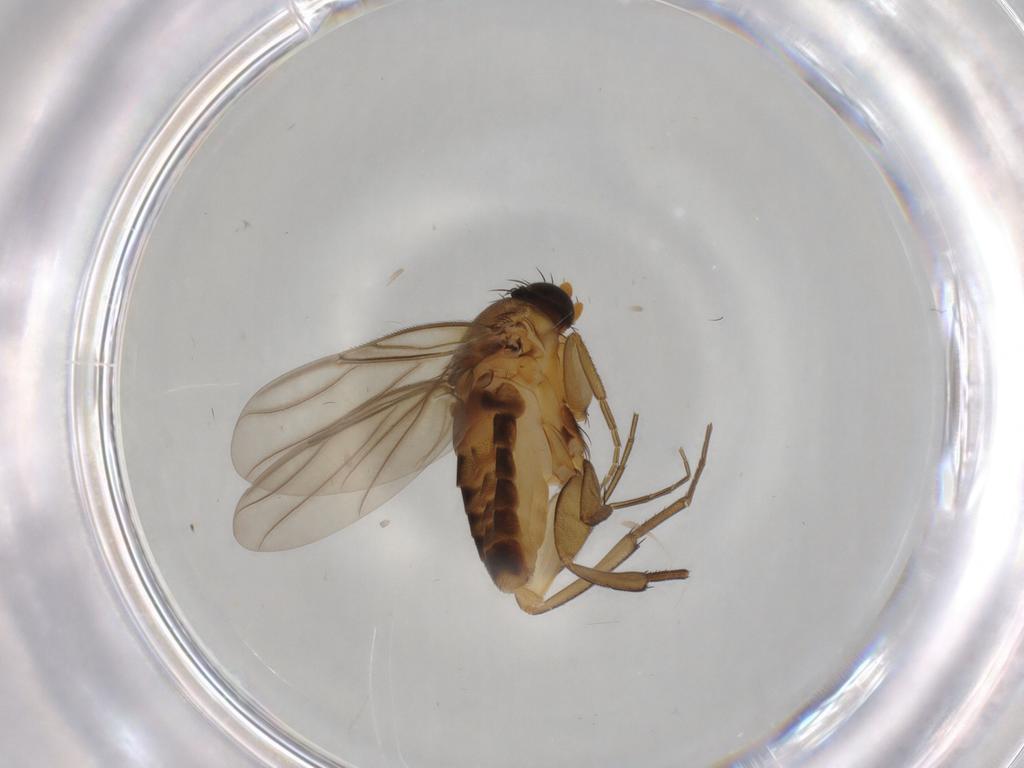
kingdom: Animalia
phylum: Arthropoda
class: Insecta
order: Diptera
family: Phoridae
